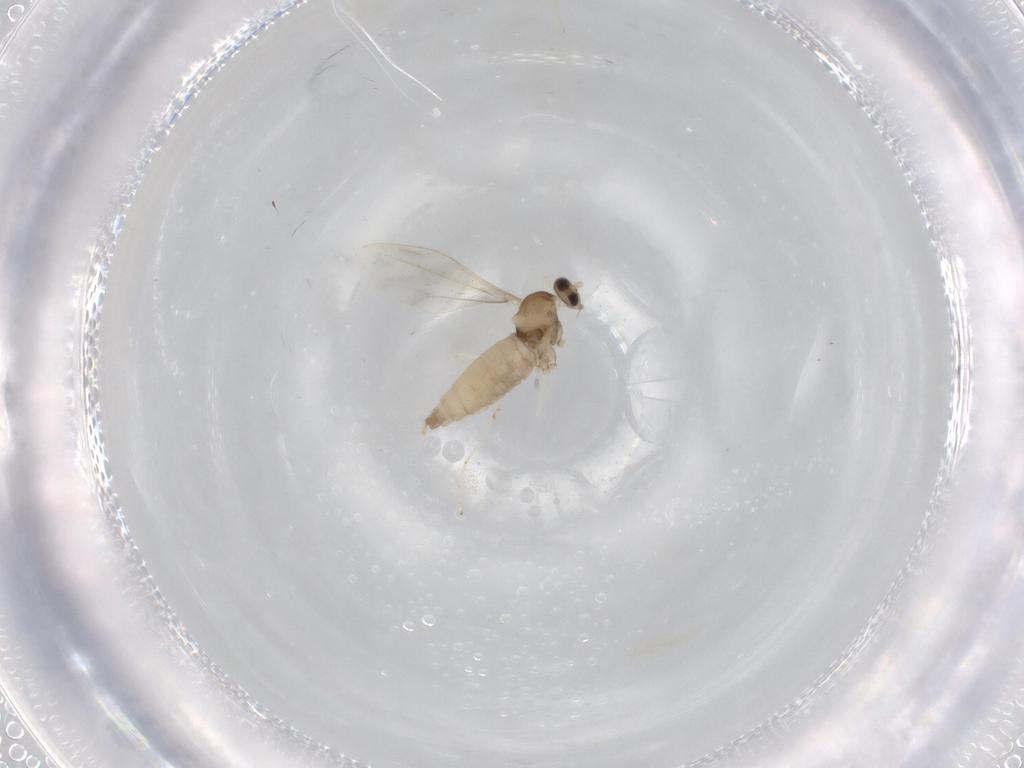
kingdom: Animalia
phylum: Arthropoda
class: Insecta
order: Diptera
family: Cecidomyiidae
